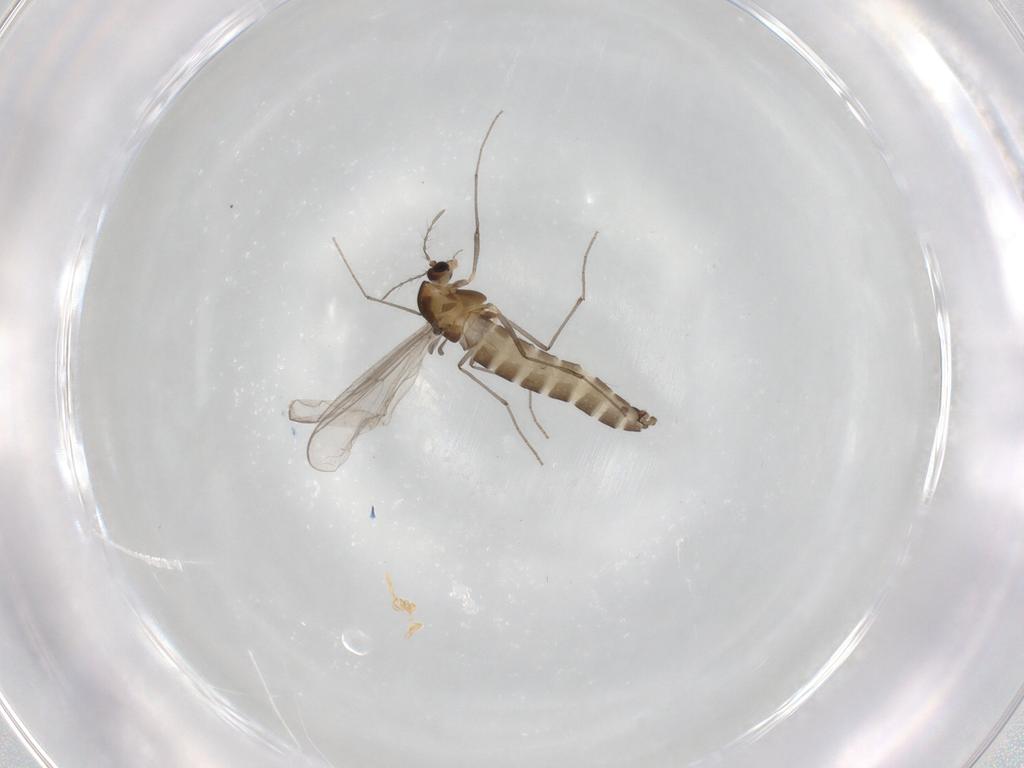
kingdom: Animalia
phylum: Arthropoda
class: Insecta
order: Diptera
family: Chironomidae
